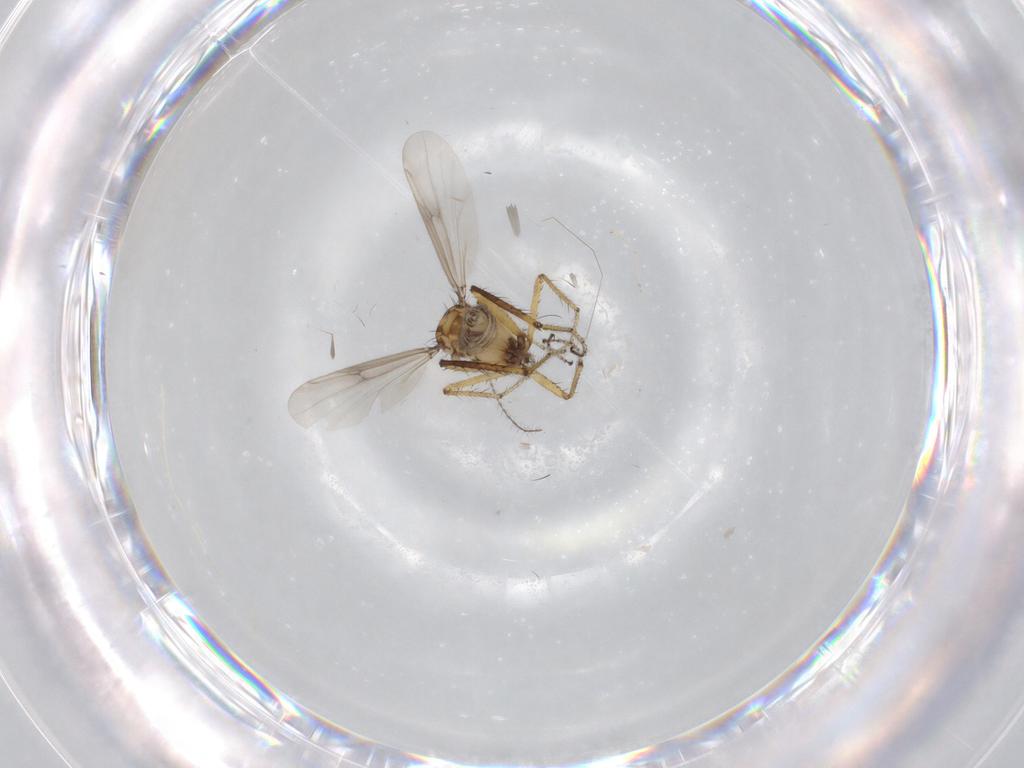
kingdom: Animalia
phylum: Arthropoda
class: Insecta
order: Diptera
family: Ceratopogonidae
